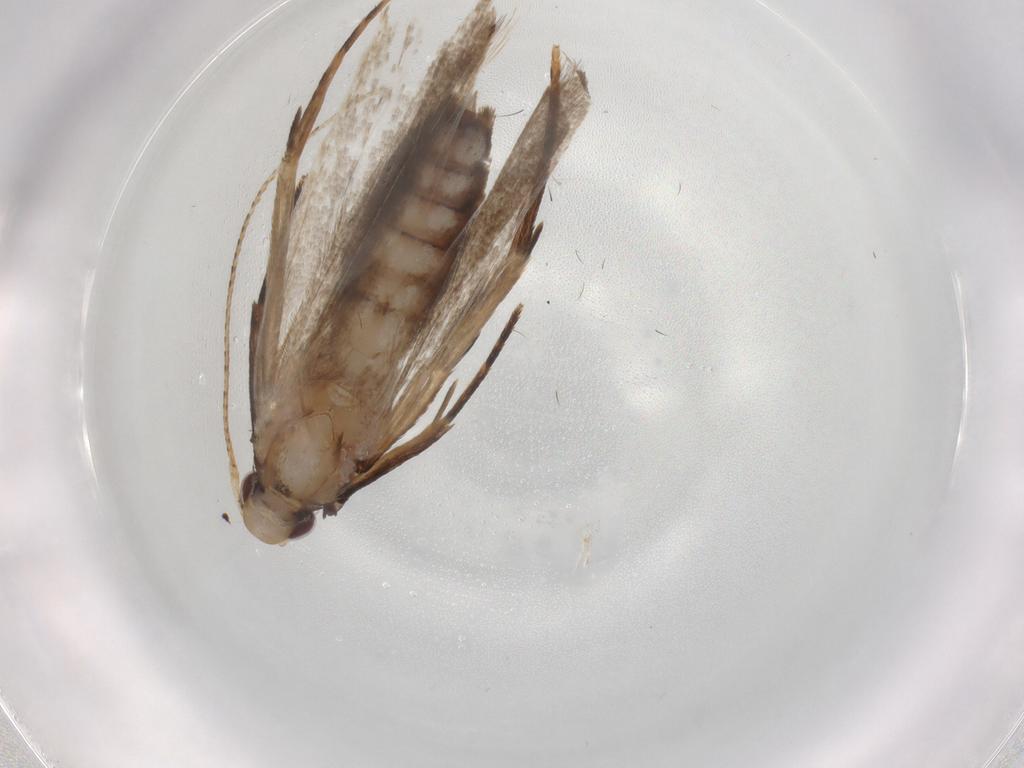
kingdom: Animalia
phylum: Arthropoda
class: Insecta
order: Lepidoptera
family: Gelechiidae
